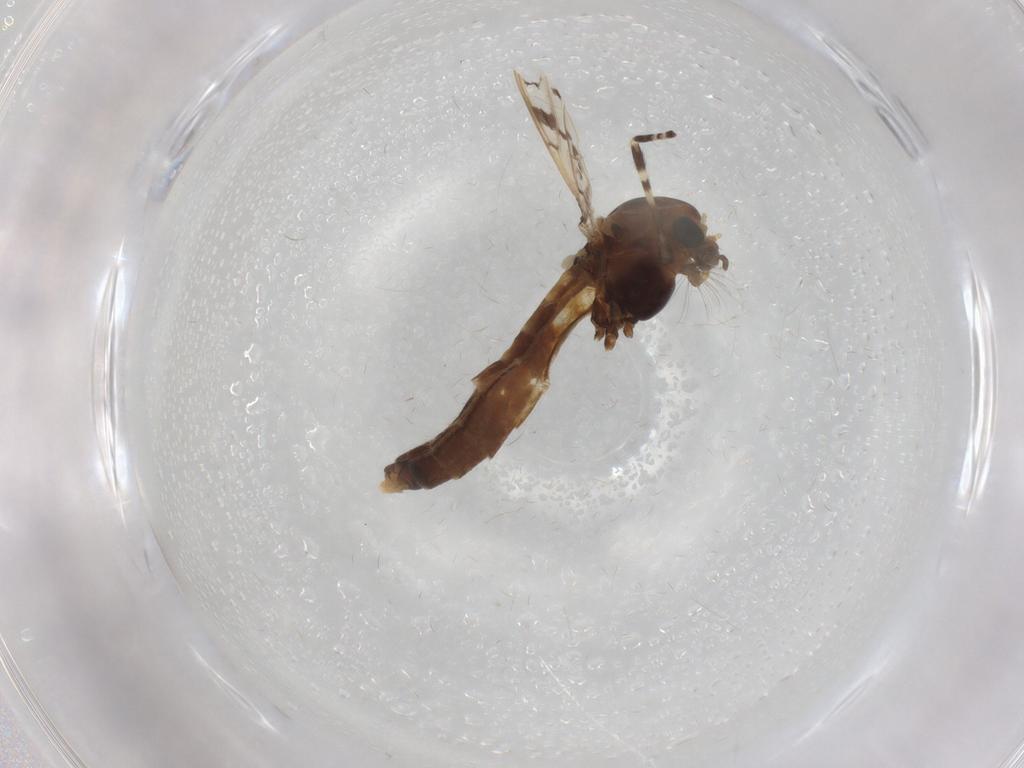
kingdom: Animalia
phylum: Arthropoda
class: Insecta
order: Diptera
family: Chironomidae
